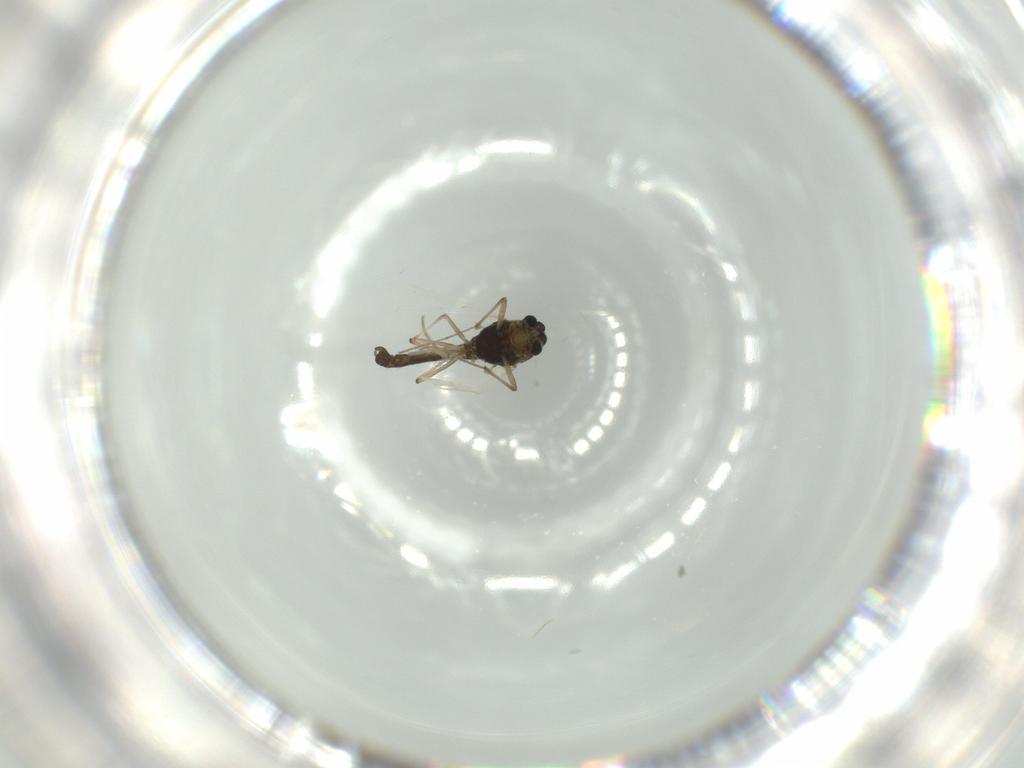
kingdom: Animalia
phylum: Arthropoda
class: Insecta
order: Diptera
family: Chironomidae
